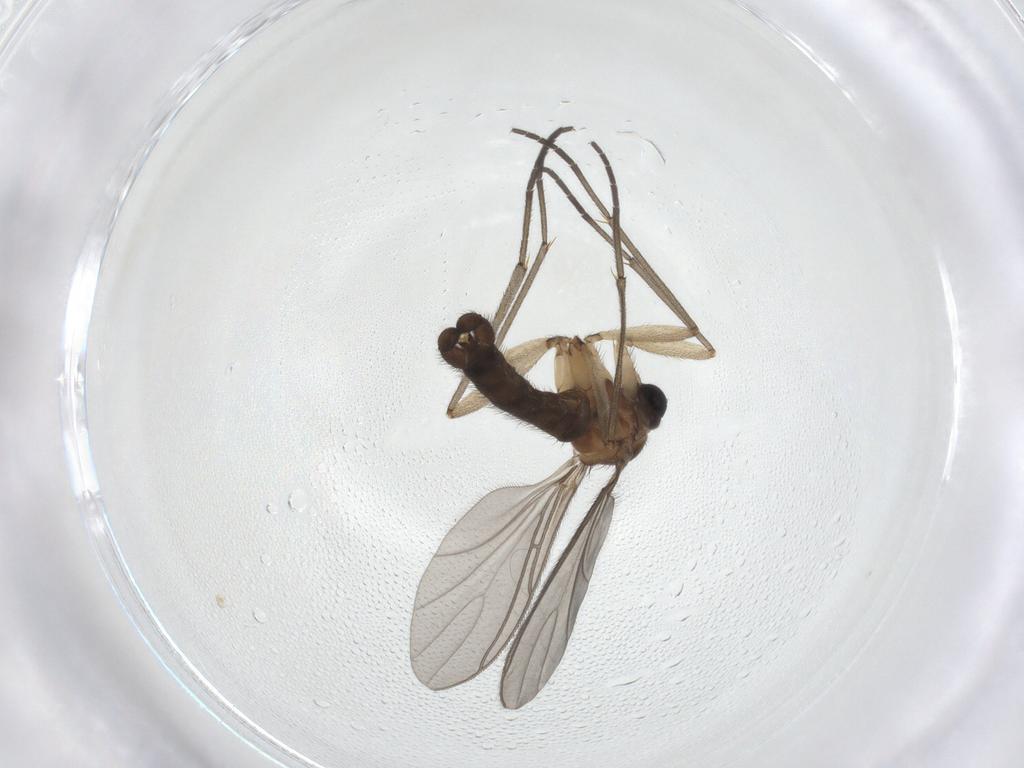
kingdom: Animalia
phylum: Arthropoda
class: Insecta
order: Diptera
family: Sciaridae
